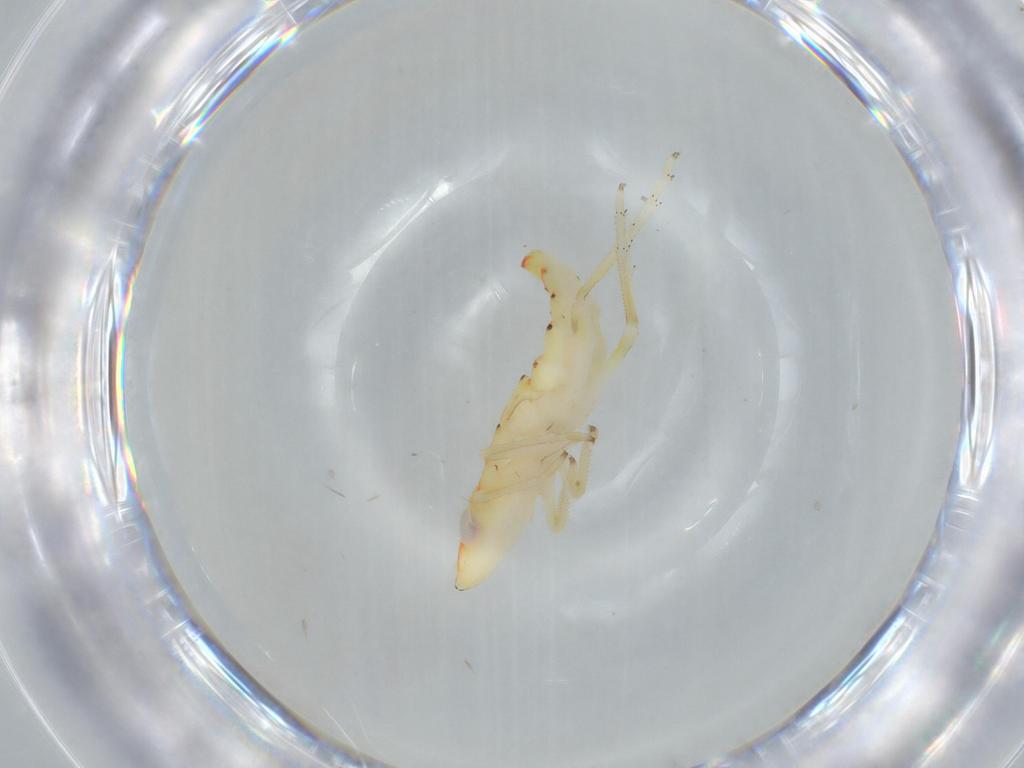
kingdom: Animalia
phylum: Arthropoda
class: Insecta
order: Hemiptera
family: Tropiduchidae
